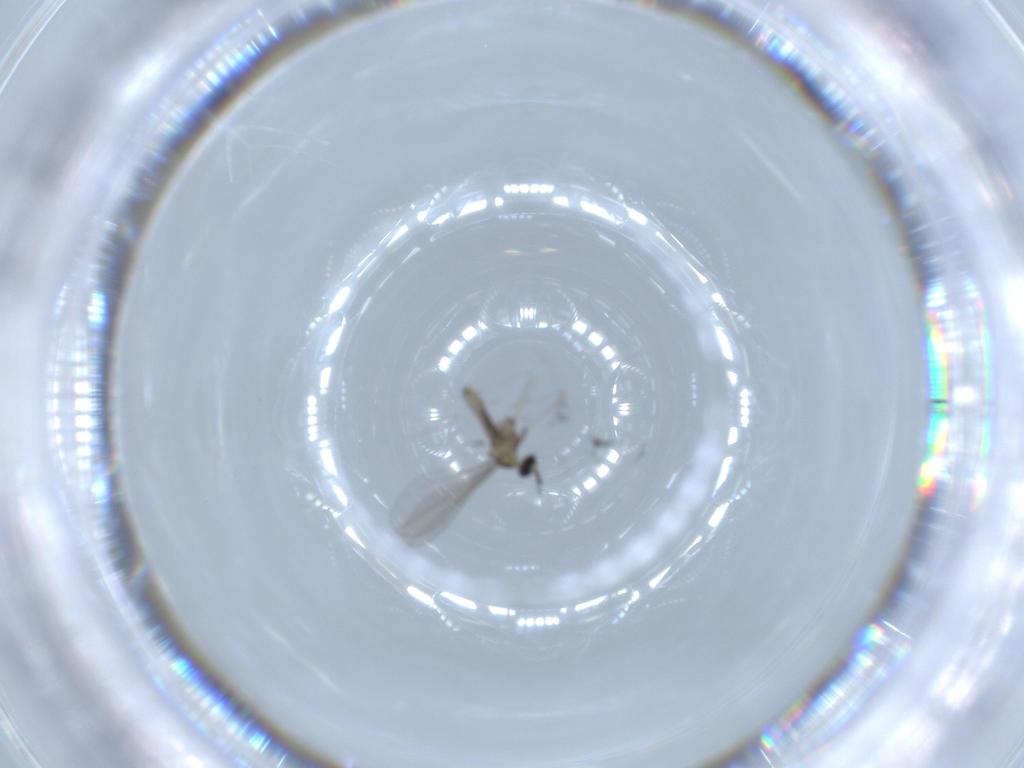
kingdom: Animalia
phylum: Arthropoda
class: Insecta
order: Diptera
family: Cecidomyiidae
